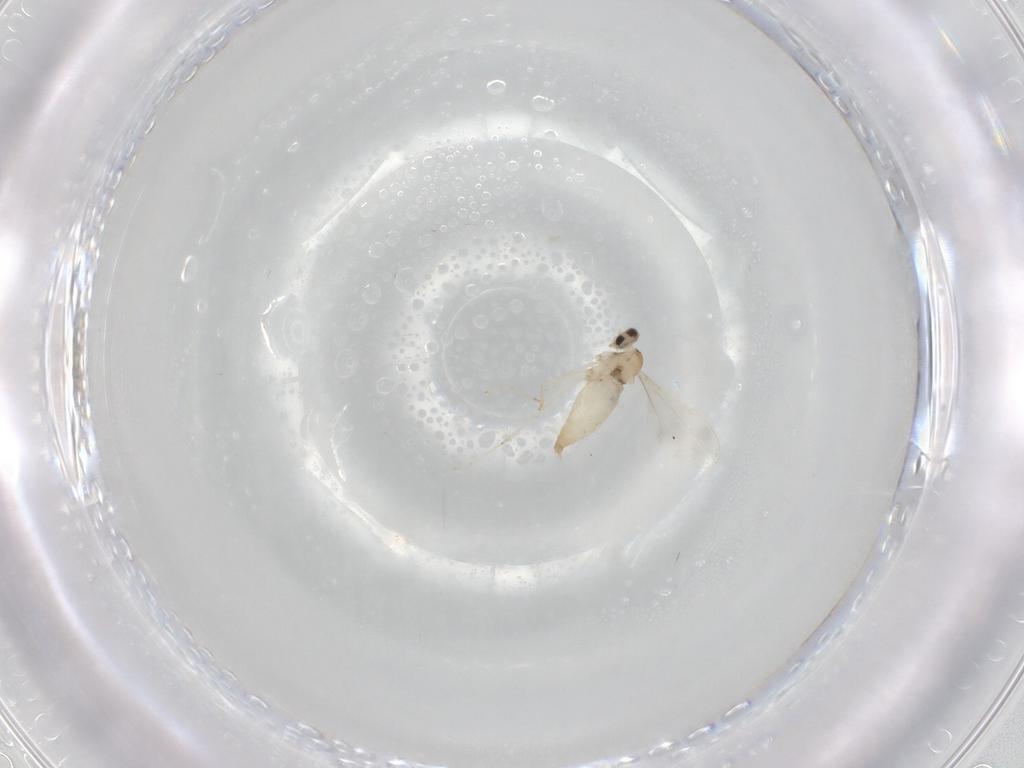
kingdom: Animalia
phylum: Arthropoda
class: Insecta
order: Diptera
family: Cecidomyiidae
